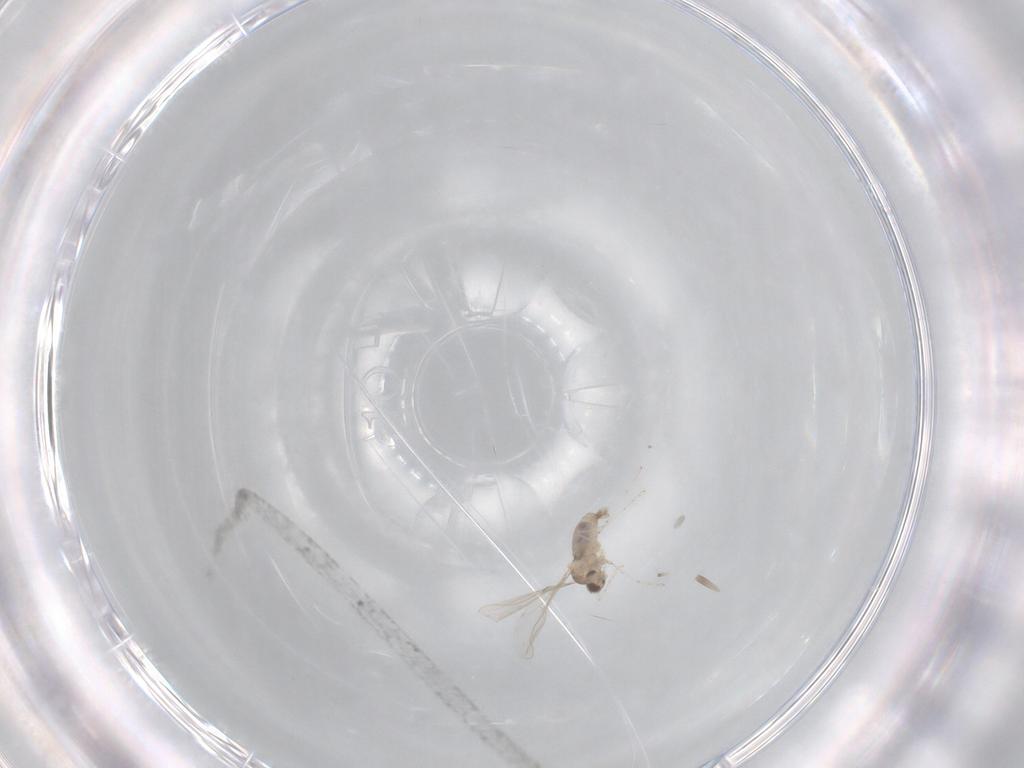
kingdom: Animalia
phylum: Arthropoda
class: Insecta
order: Diptera
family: Cecidomyiidae
